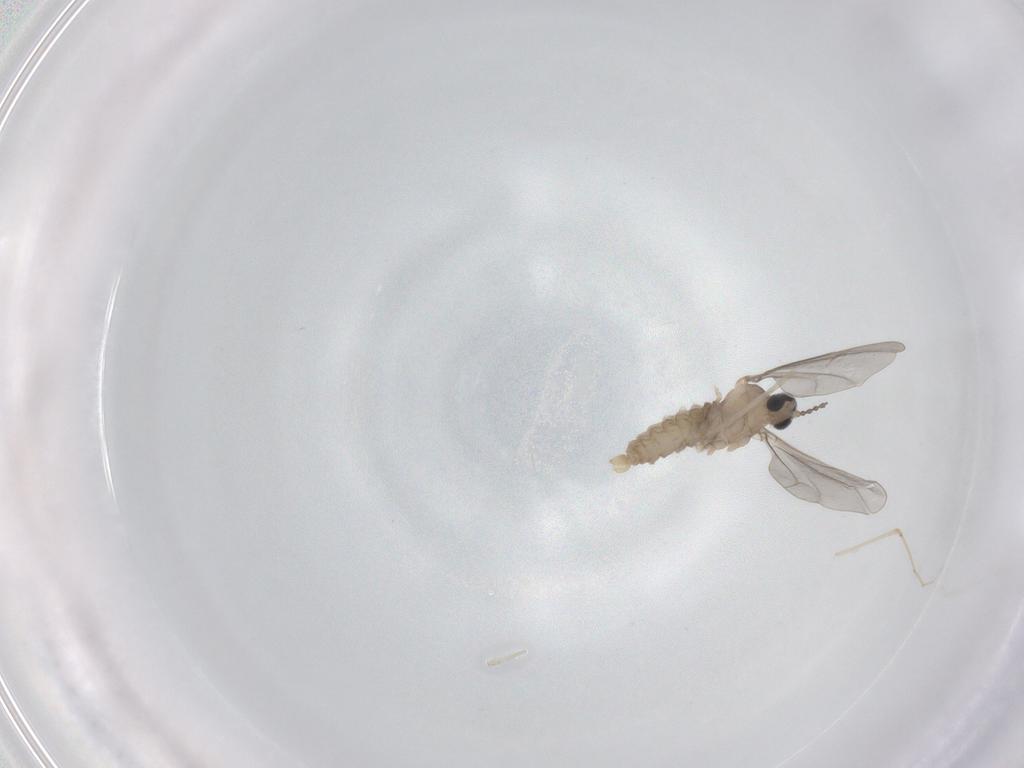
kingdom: Animalia
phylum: Arthropoda
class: Insecta
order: Diptera
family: Cecidomyiidae
